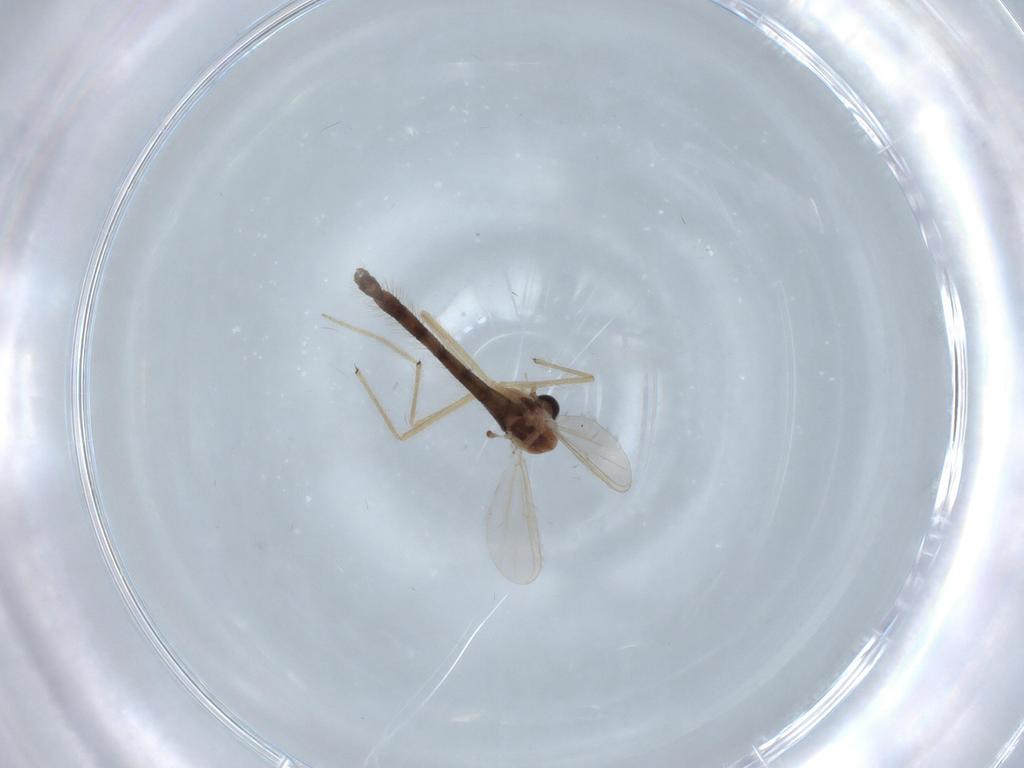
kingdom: Animalia
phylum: Arthropoda
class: Insecta
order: Diptera
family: Chironomidae
